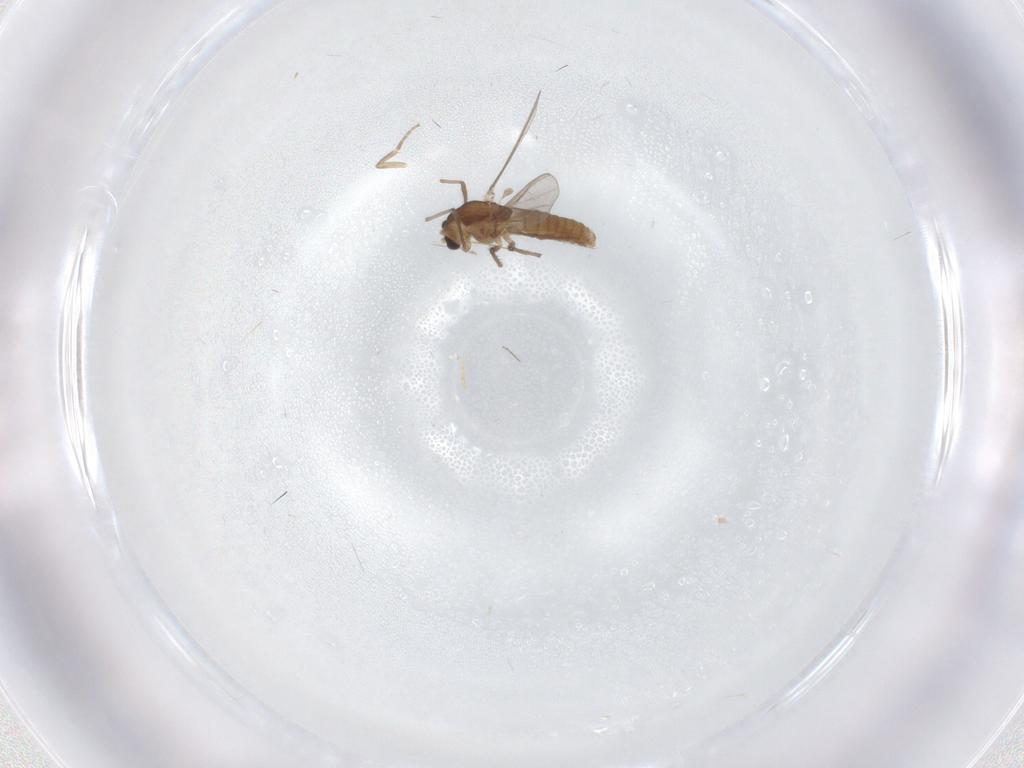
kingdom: Animalia
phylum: Arthropoda
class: Insecta
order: Diptera
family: Chironomidae
